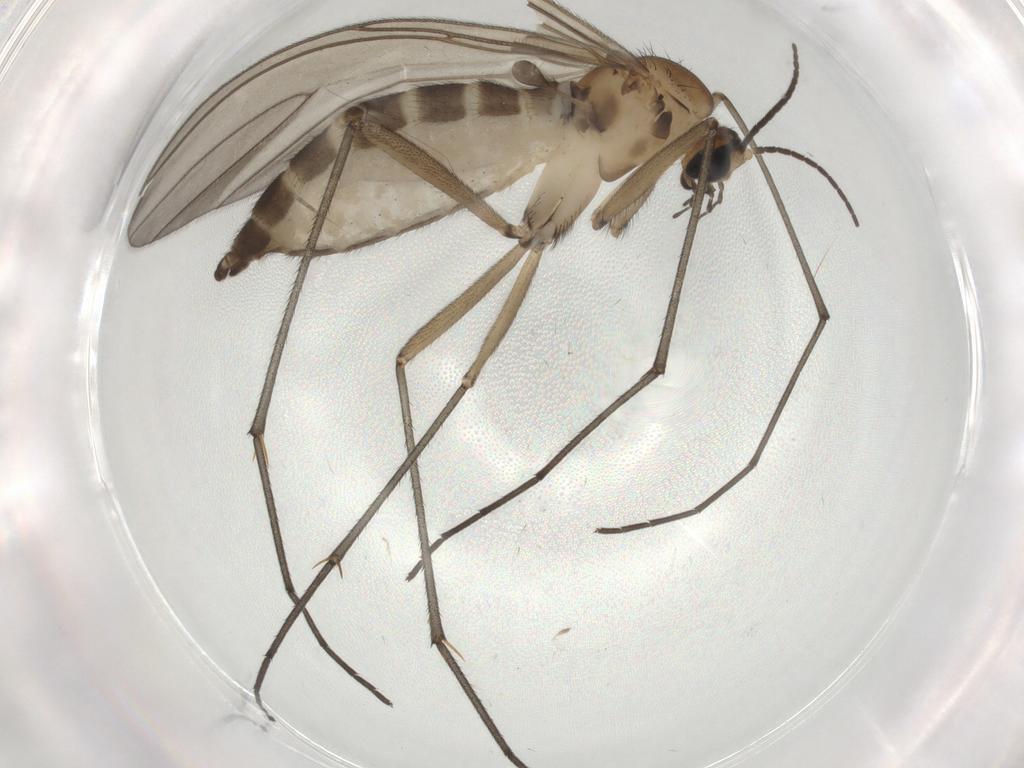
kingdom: Animalia
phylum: Arthropoda
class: Insecta
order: Diptera
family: Sciaridae
